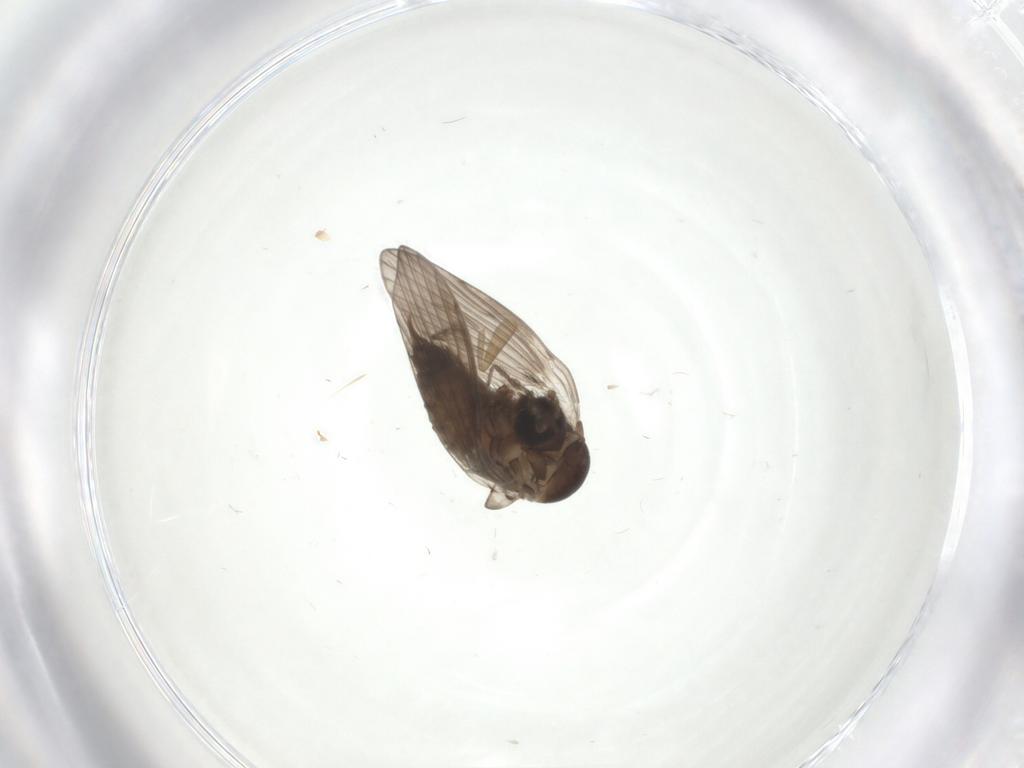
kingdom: Animalia
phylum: Arthropoda
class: Insecta
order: Diptera
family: Psychodidae
